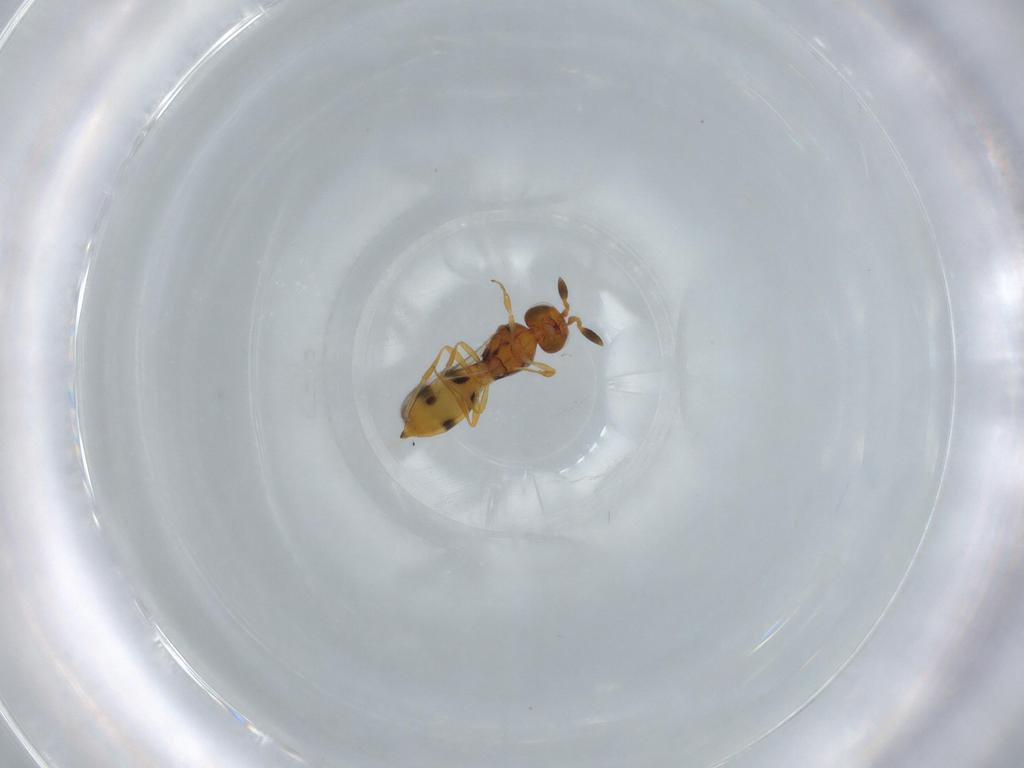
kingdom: Animalia
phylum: Arthropoda
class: Insecta
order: Hymenoptera
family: Scelionidae
